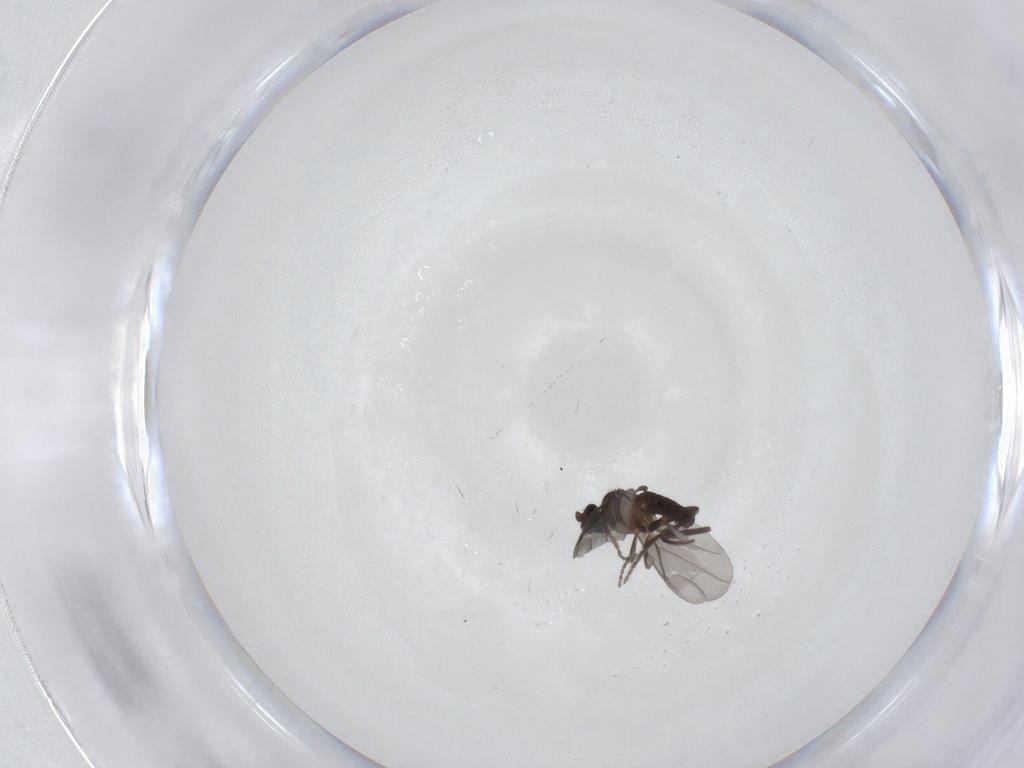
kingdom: Animalia
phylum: Arthropoda
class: Insecta
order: Diptera
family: Phoridae
